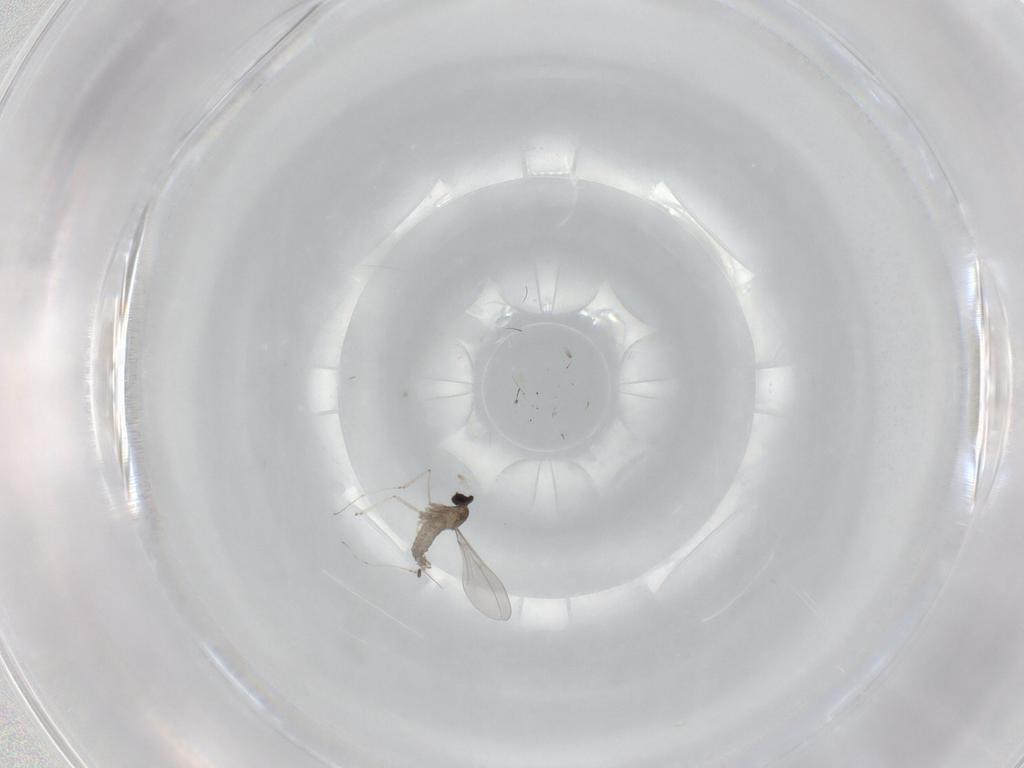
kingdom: Animalia
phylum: Arthropoda
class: Insecta
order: Diptera
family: Cecidomyiidae
